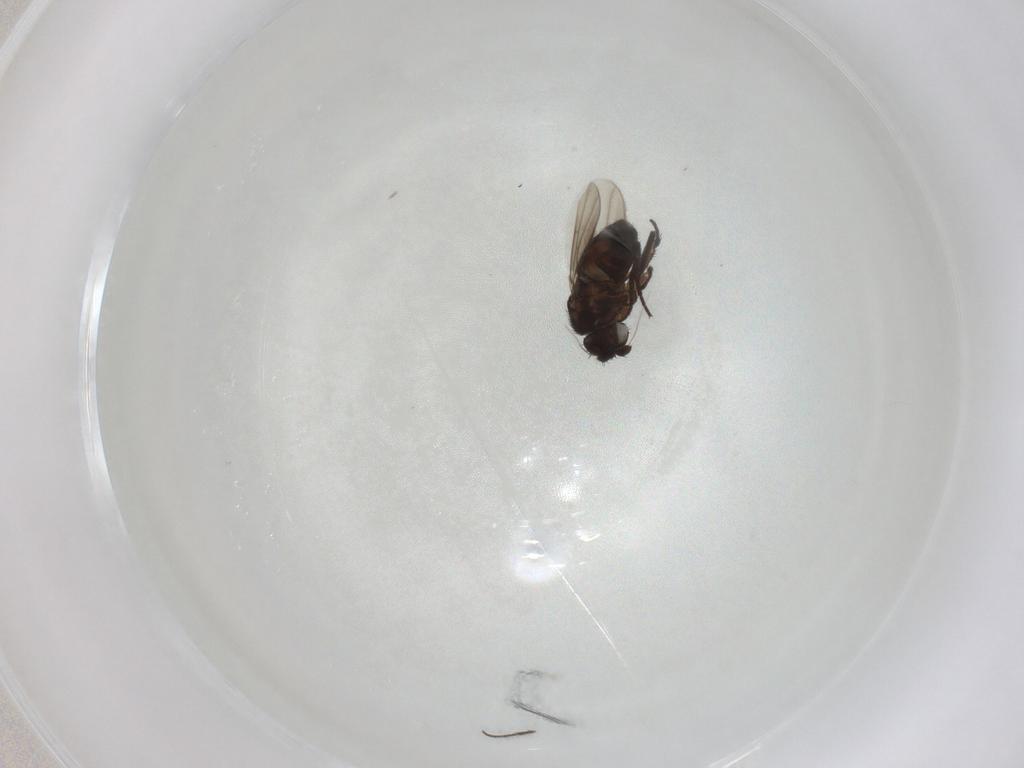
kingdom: Animalia
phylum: Arthropoda
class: Insecta
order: Diptera
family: Sphaeroceridae
